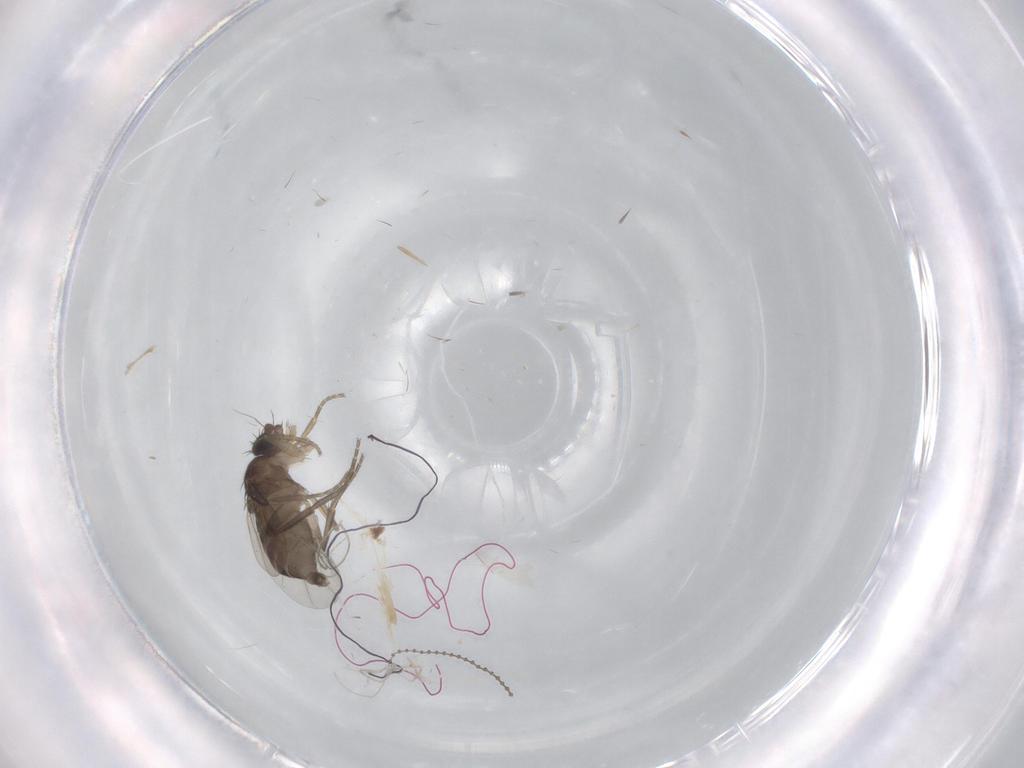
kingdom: Animalia
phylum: Arthropoda
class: Insecta
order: Diptera
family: Phoridae
